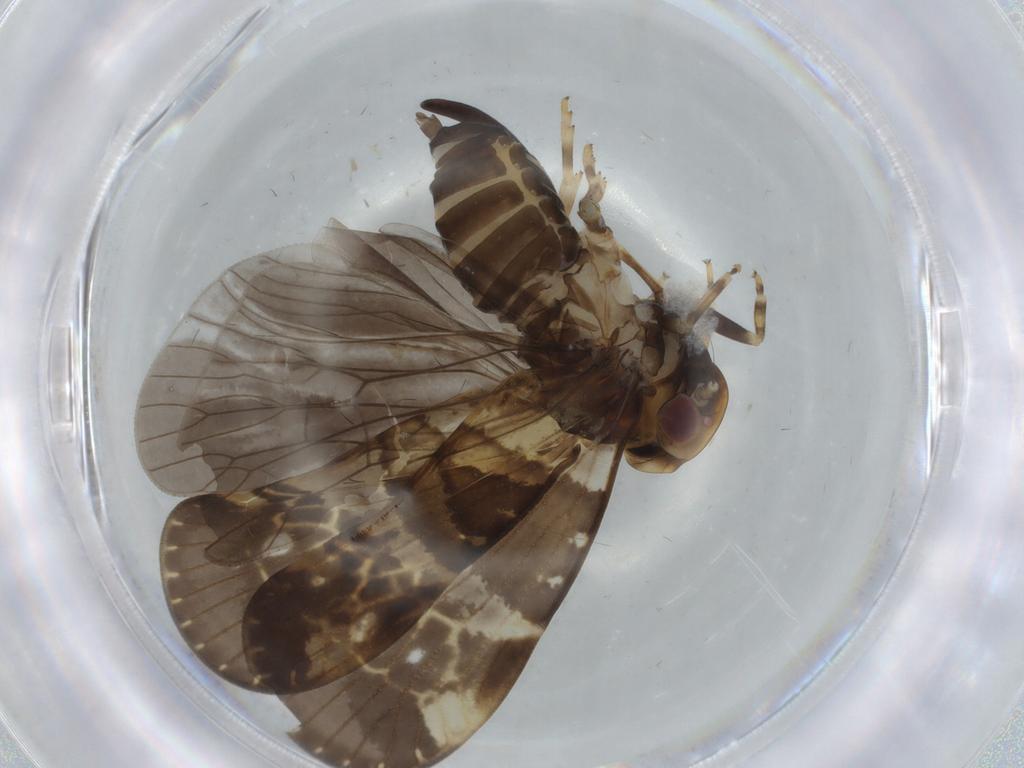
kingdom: Animalia
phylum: Arthropoda
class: Insecta
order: Hemiptera
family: Cixiidae
